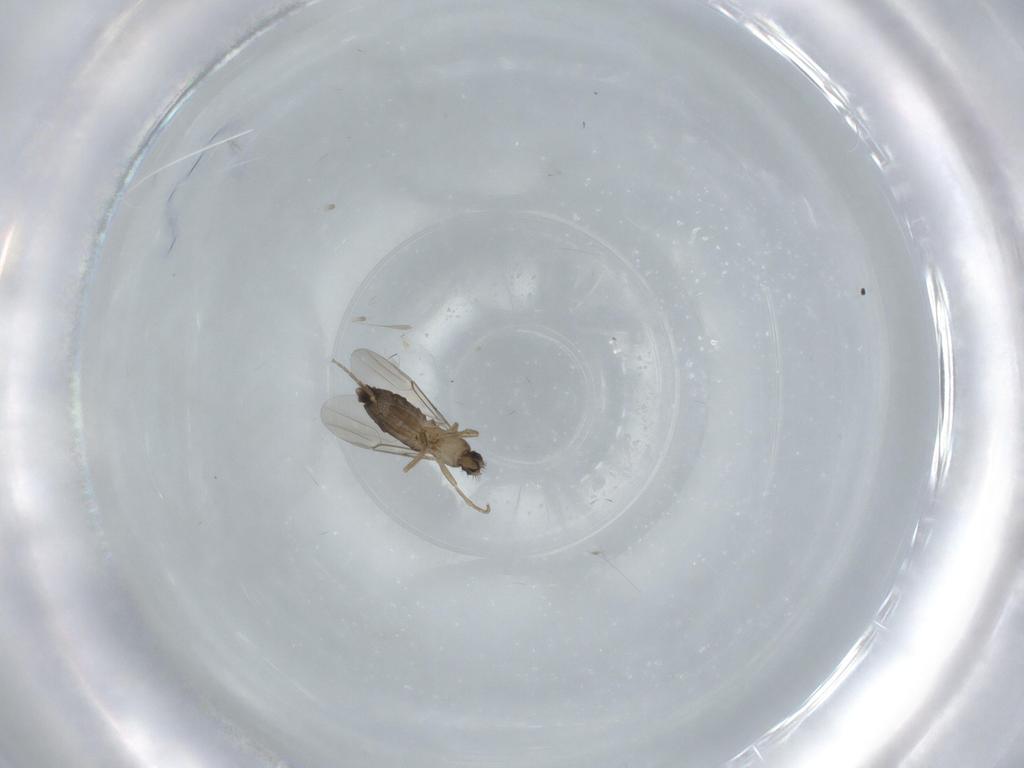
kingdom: Animalia
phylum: Arthropoda
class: Insecta
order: Diptera
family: Phoridae
